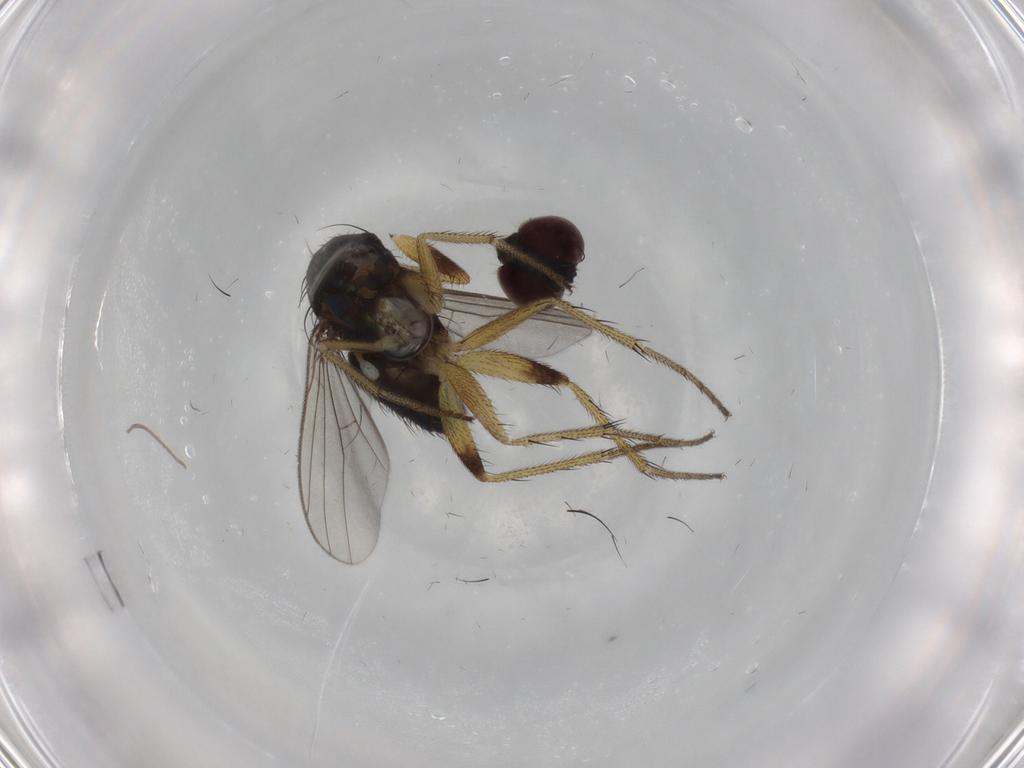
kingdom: Animalia
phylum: Arthropoda
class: Insecta
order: Diptera
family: Dolichopodidae
